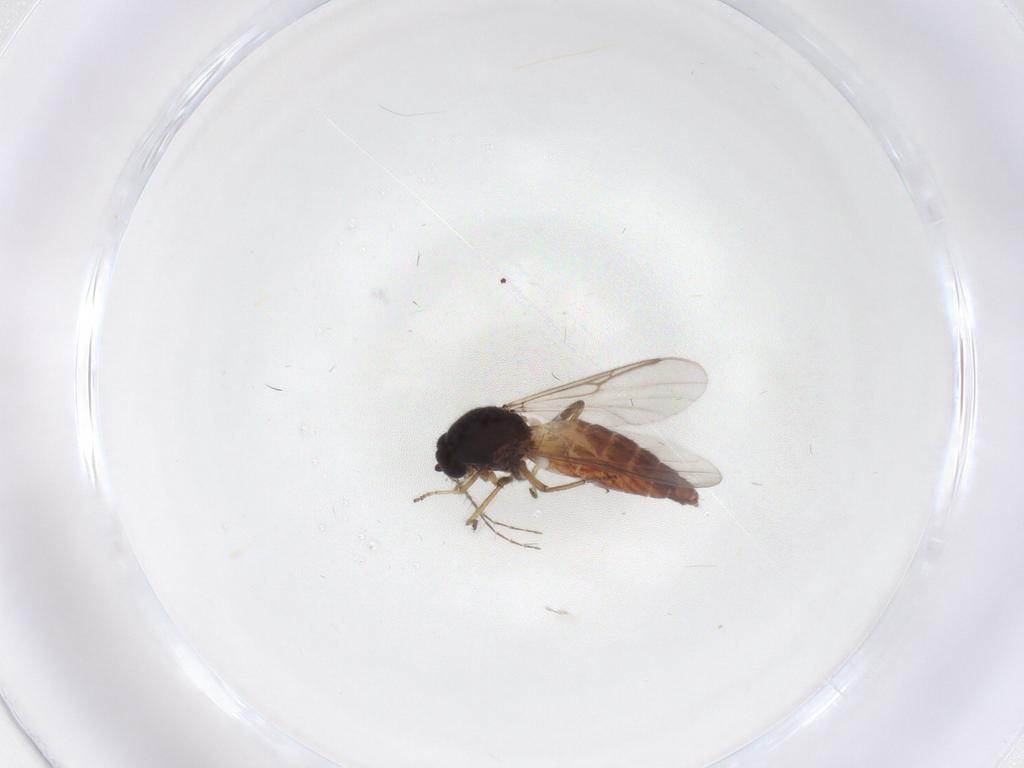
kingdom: Animalia
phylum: Arthropoda
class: Insecta
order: Diptera
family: Ceratopogonidae
